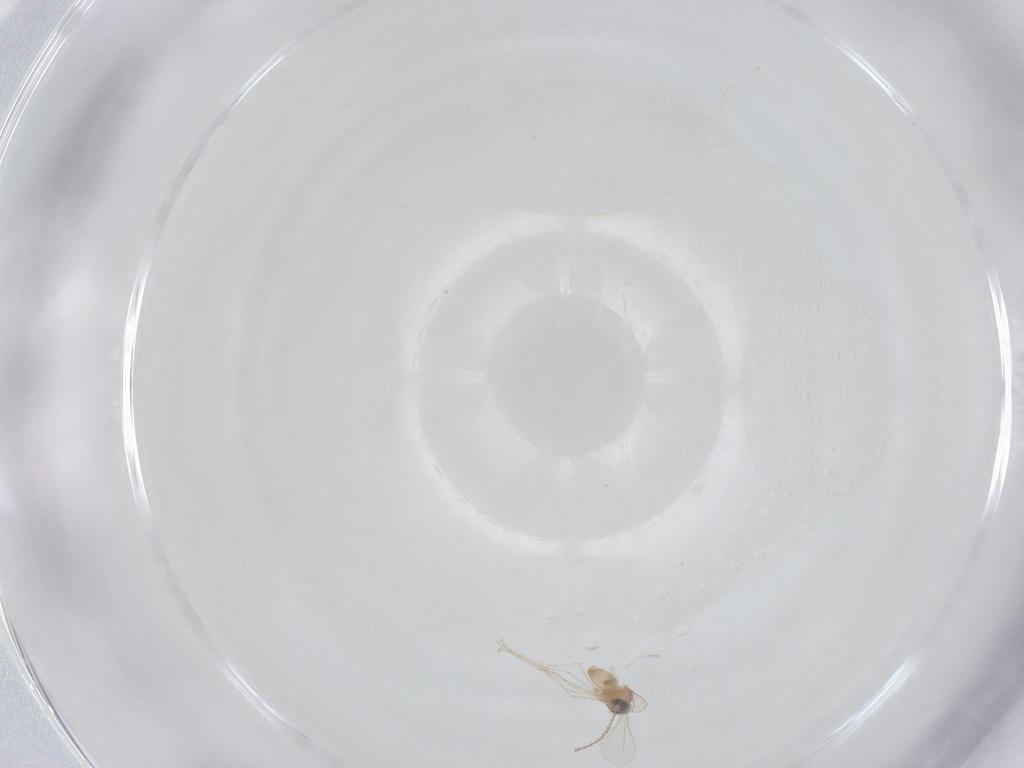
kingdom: Animalia
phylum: Arthropoda
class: Insecta
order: Diptera
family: Cecidomyiidae
